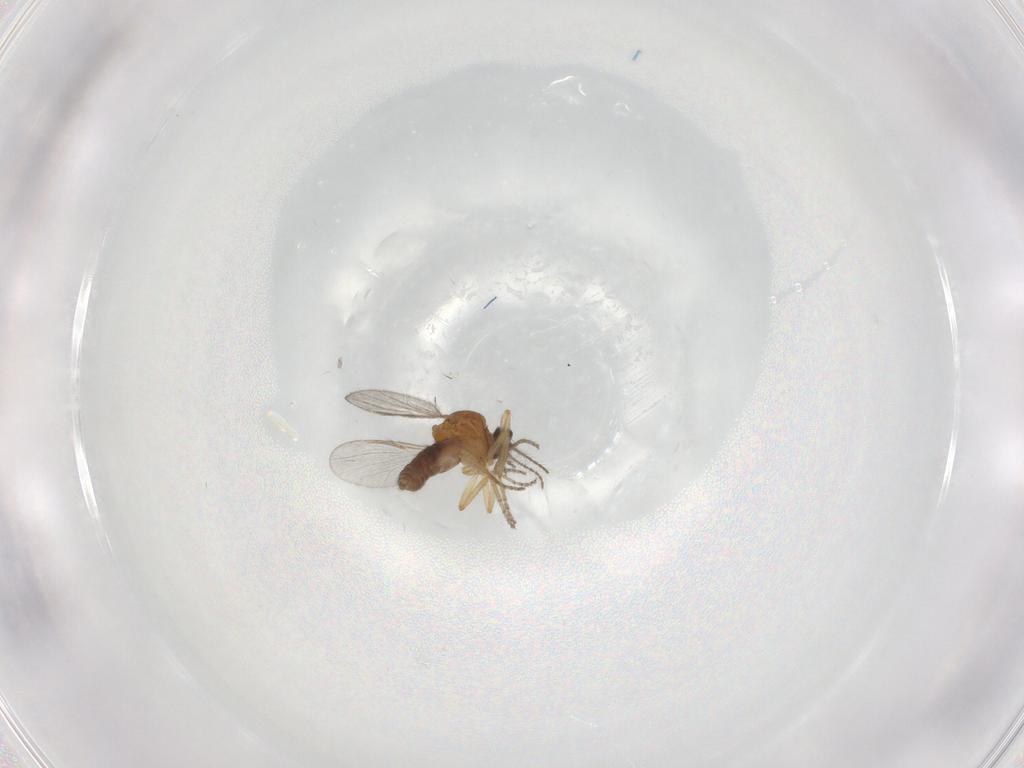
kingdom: Animalia
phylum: Arthropoda
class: Insecta
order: Diptera
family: Ceratopogonidae
